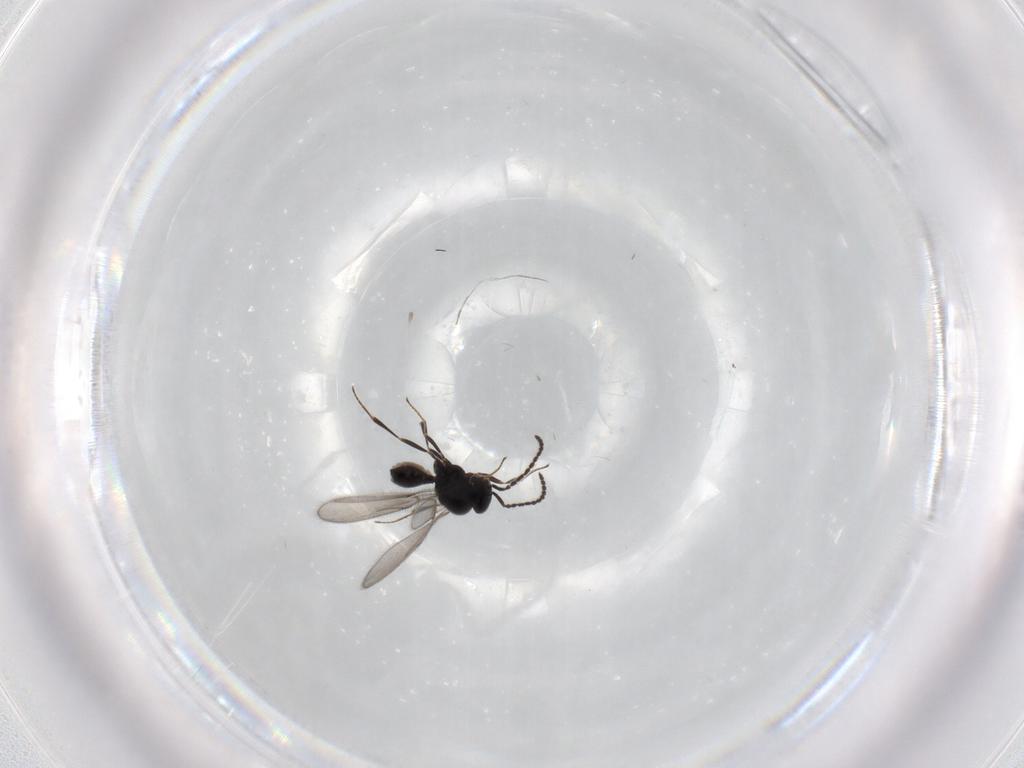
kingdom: Animalia
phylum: Arthropoda
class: Insecta
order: Hymenoptera
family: Scelionidae
